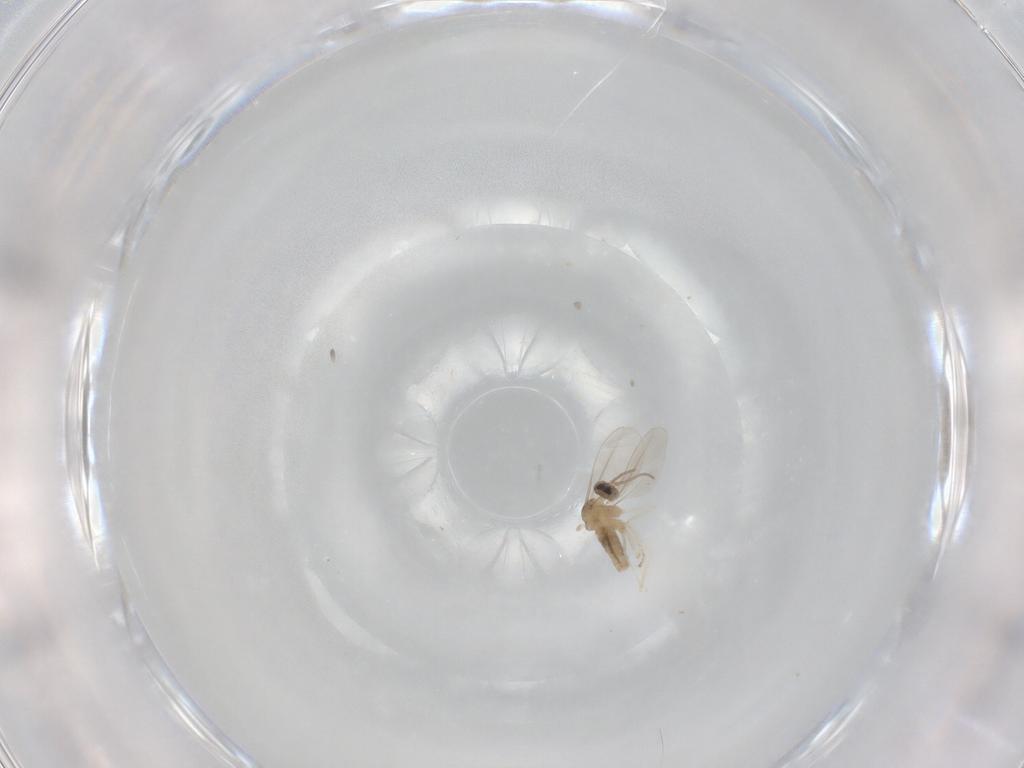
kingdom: Animalia
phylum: Arthropoda
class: Insecta
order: Diptera
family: Cecidomyiidae
